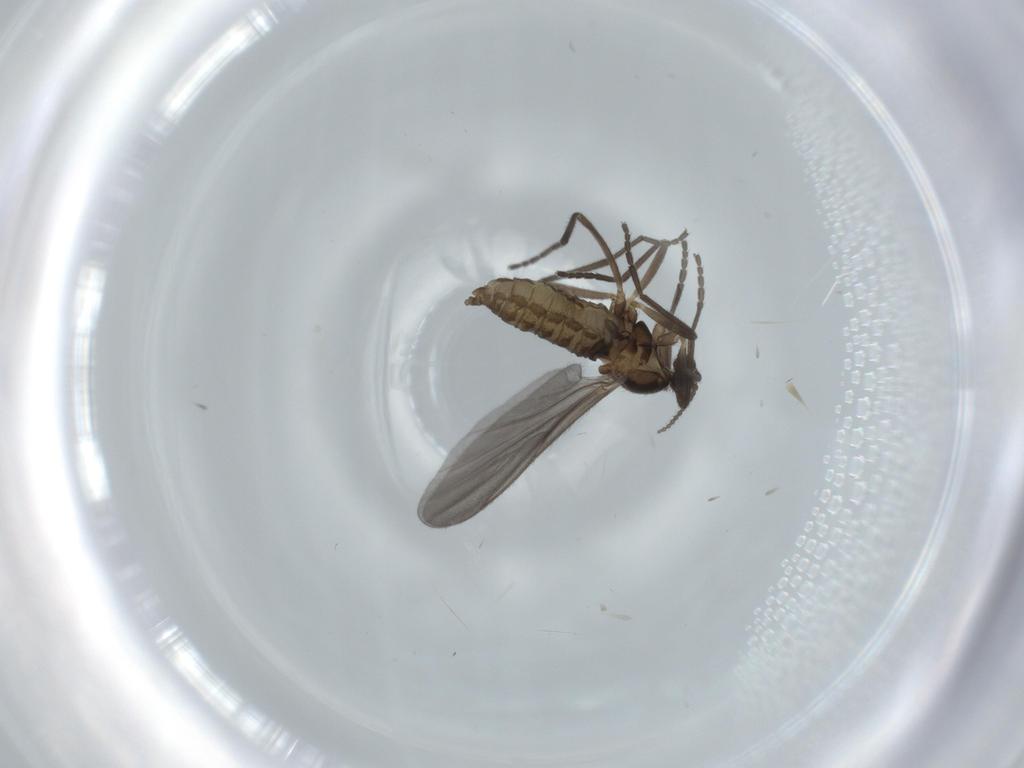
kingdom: Animalia
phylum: Arthropoda
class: Insecta
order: Diptera
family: Cecidomyiidae
